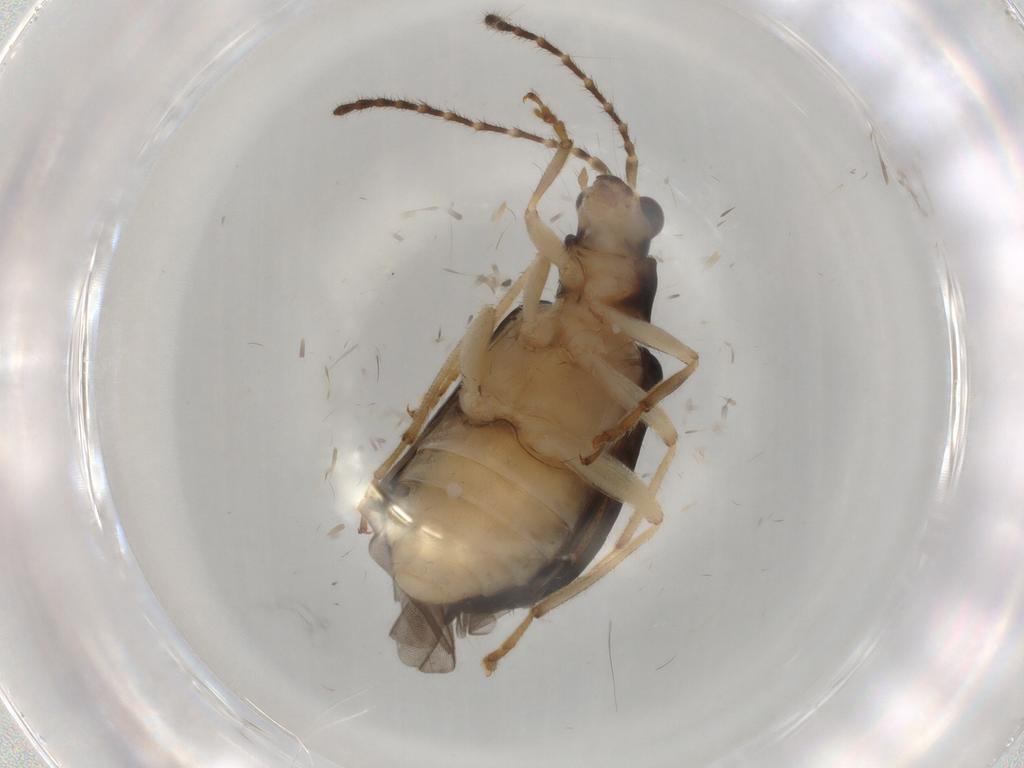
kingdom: Animalia
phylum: Arthropoda
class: Insecta
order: Coleoptera
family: Chrysomelidae
